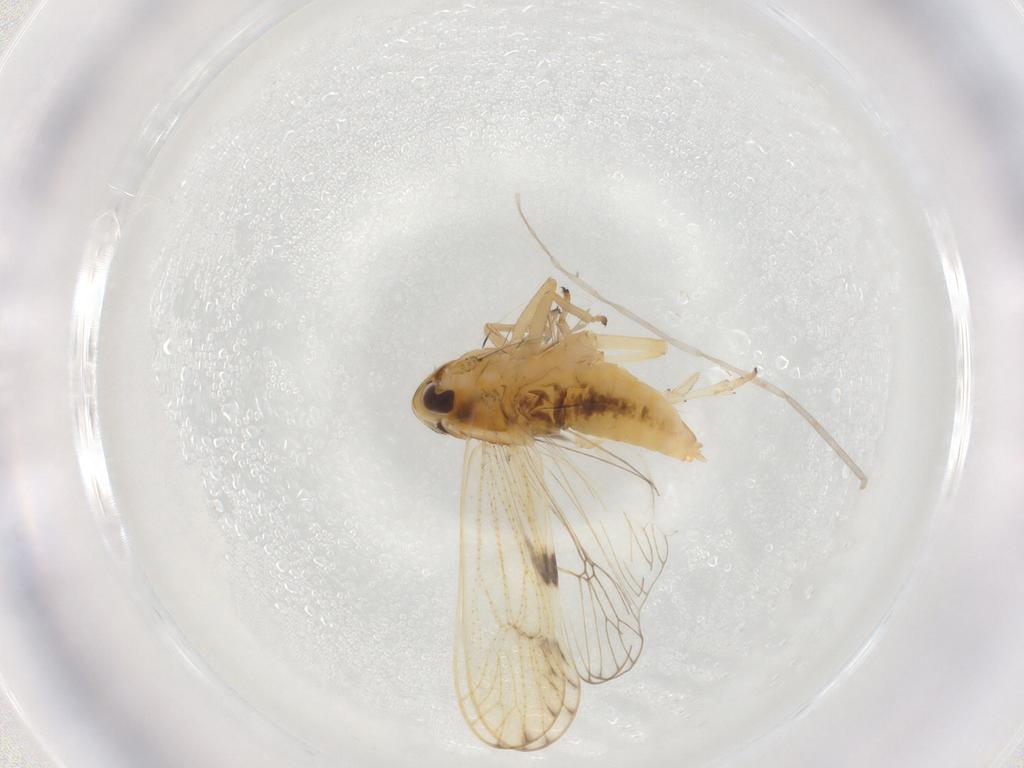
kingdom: Animalia
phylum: Arthropoda
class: Insecta
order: Hemiptera
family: Delphacidae
